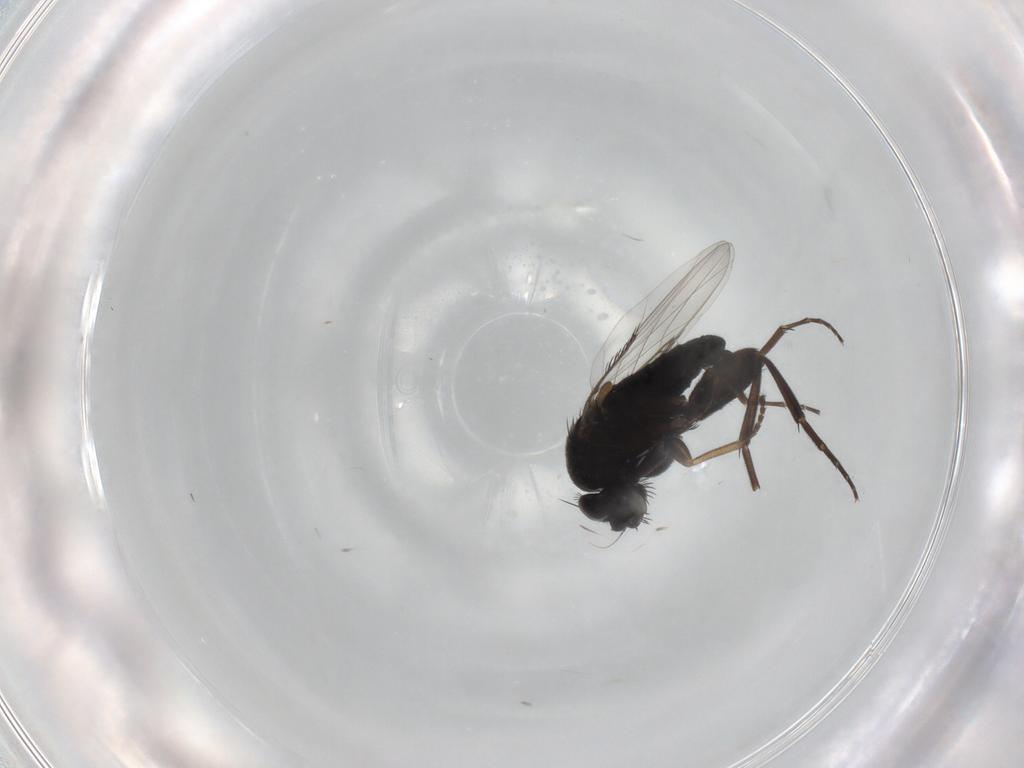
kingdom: Animalia
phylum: Arthropoda
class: Insecta
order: Diptera
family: Phoridae
